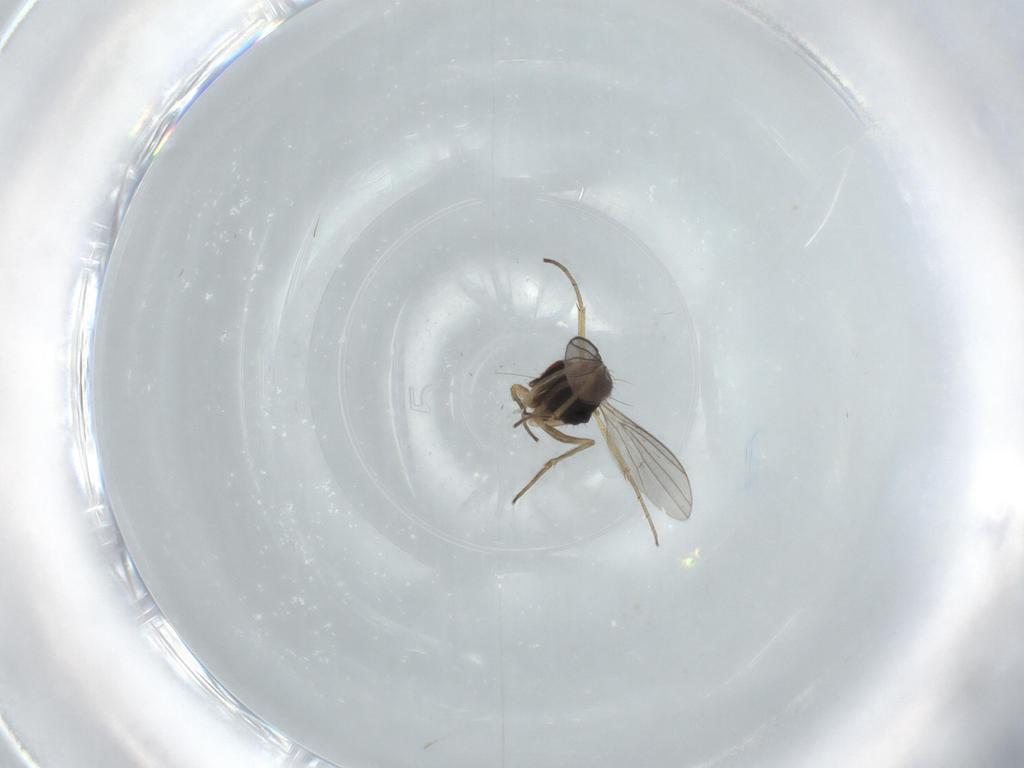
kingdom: Animalia
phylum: Arthropoda
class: Insecta
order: Diptera
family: Dolichopodidae
